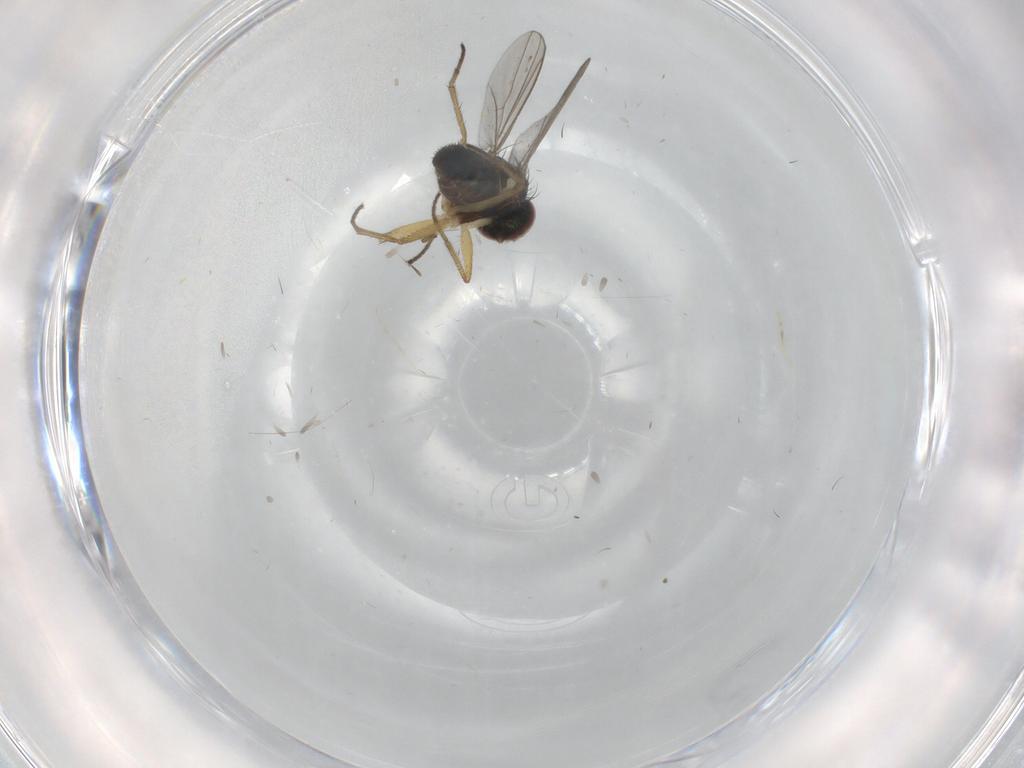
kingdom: Animalia
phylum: Arthropoda
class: Insecta
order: Diptera
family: Dolichopodidae
